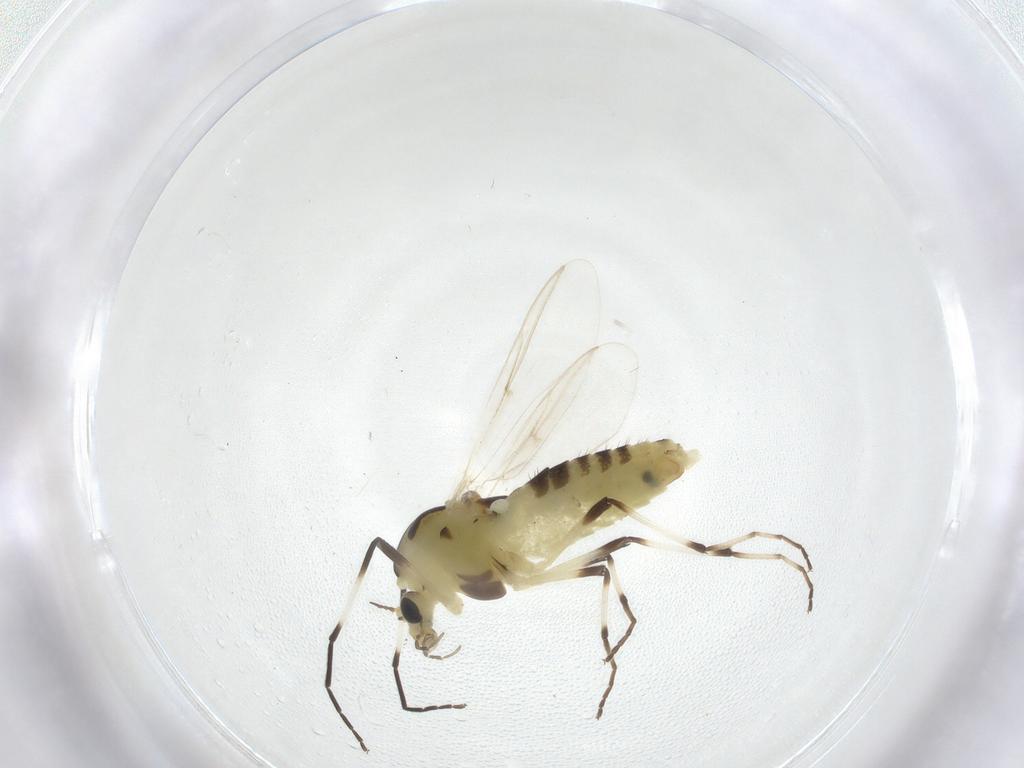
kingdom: Animalia
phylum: Arthropoda
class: Insecta
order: Diptera
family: Chironomidae
